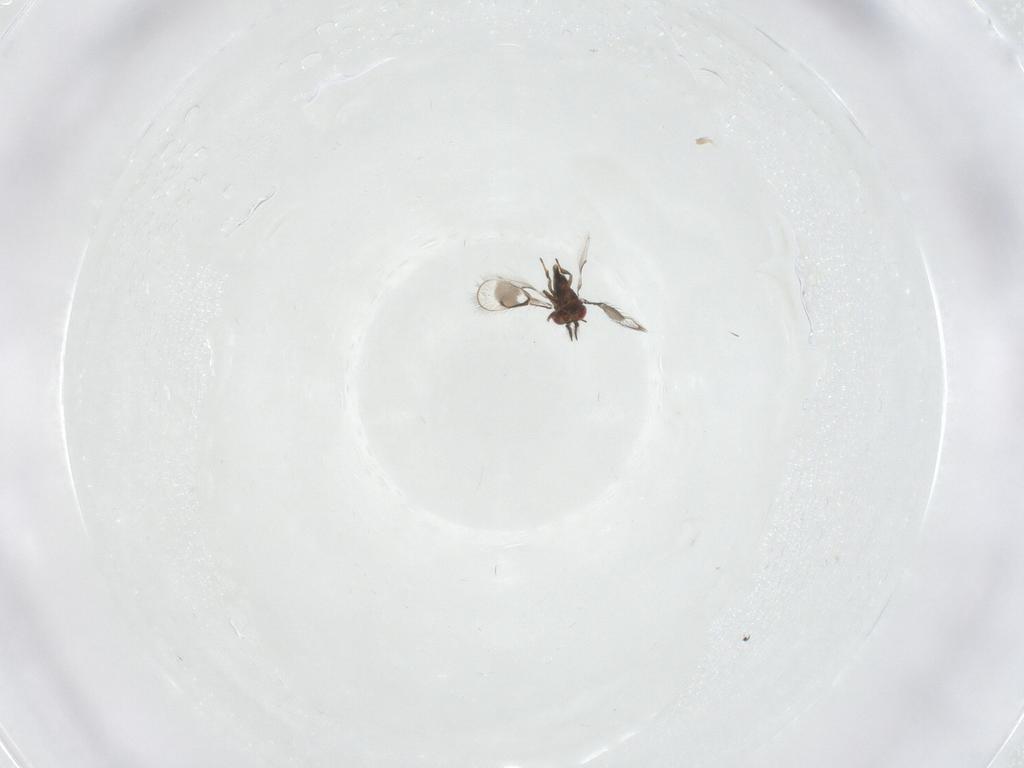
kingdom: Animalia
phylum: Arthropoda
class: Insecta
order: Hymenoptera
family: Trichogrammatidae
